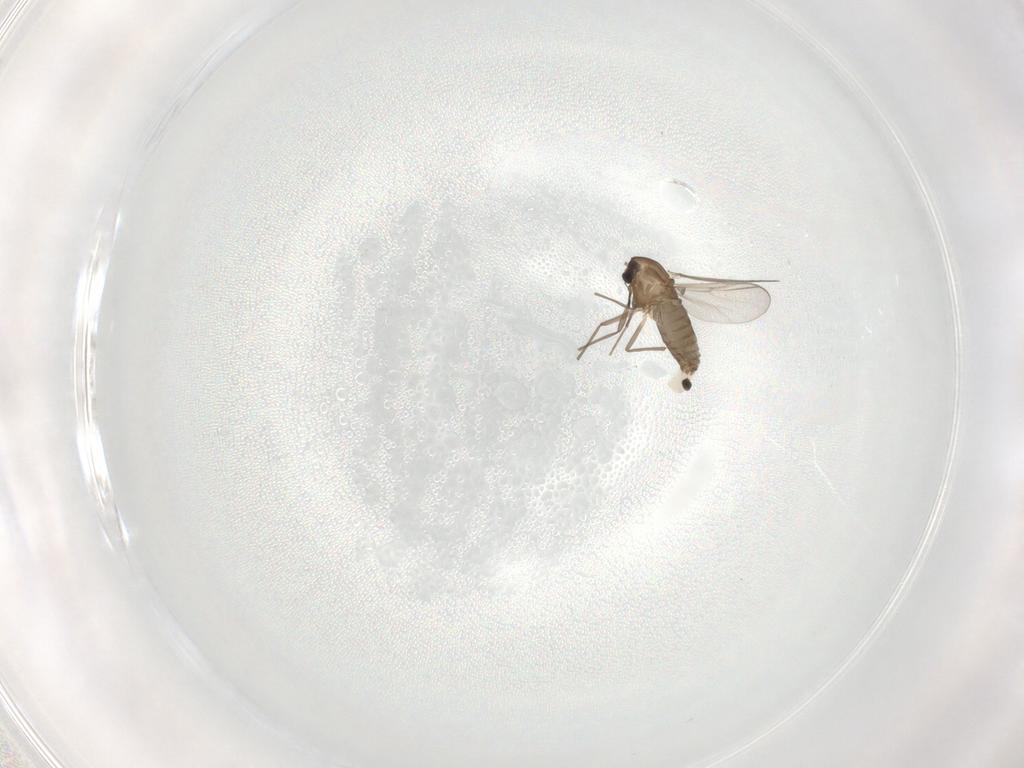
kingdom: Animalia
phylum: Arthropoda
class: Insecta
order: Diptera
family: Chironomidae
